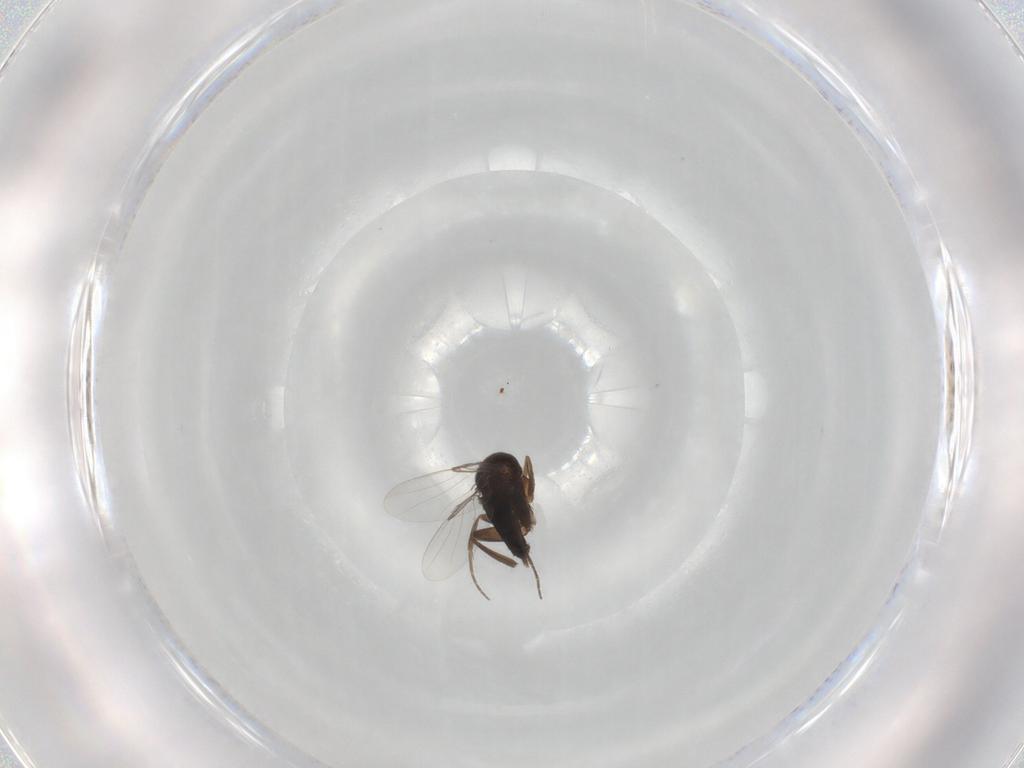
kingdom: Animalia
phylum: Arthropoda
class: Insecta
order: Diptera
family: Phoridae
